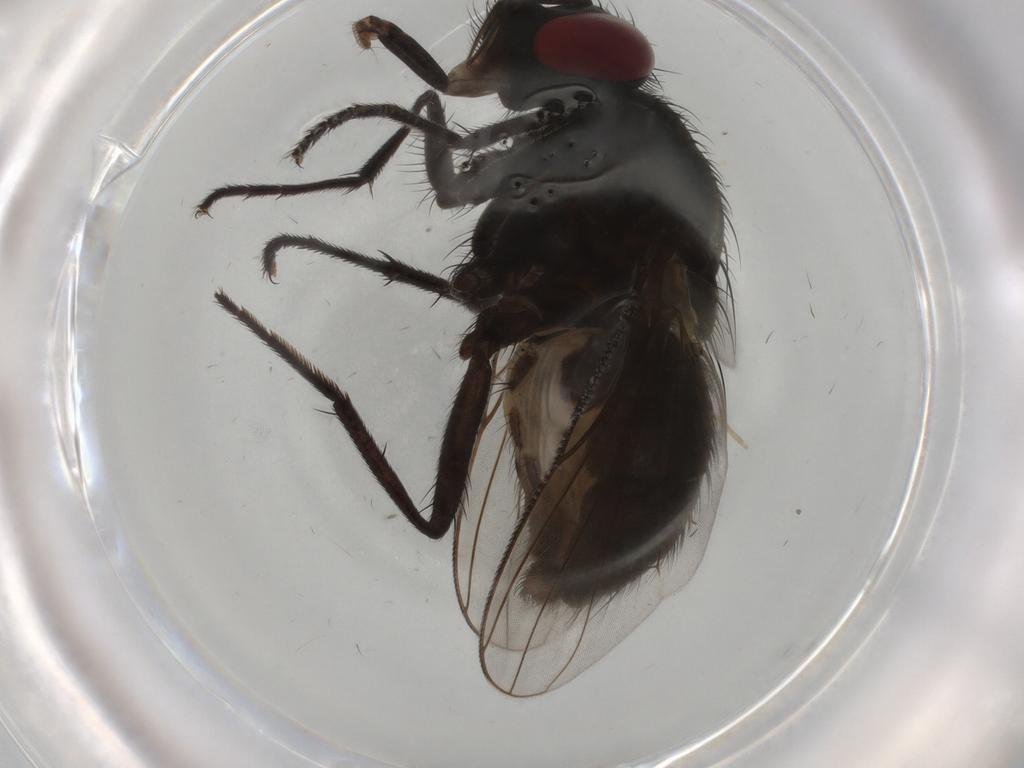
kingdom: Animalia
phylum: Arthropoda
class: Insecta
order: Diptera
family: Muscidae
